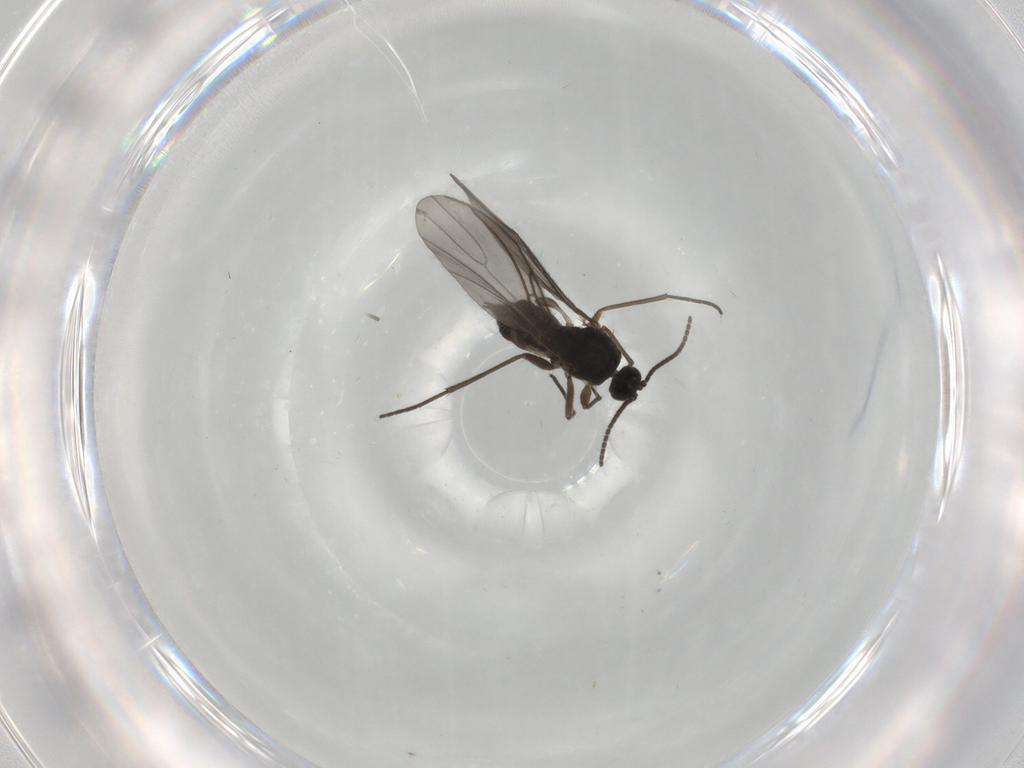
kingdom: Animalia
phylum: Arthropoda
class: Insecta
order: Diptera
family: Sciaridae
